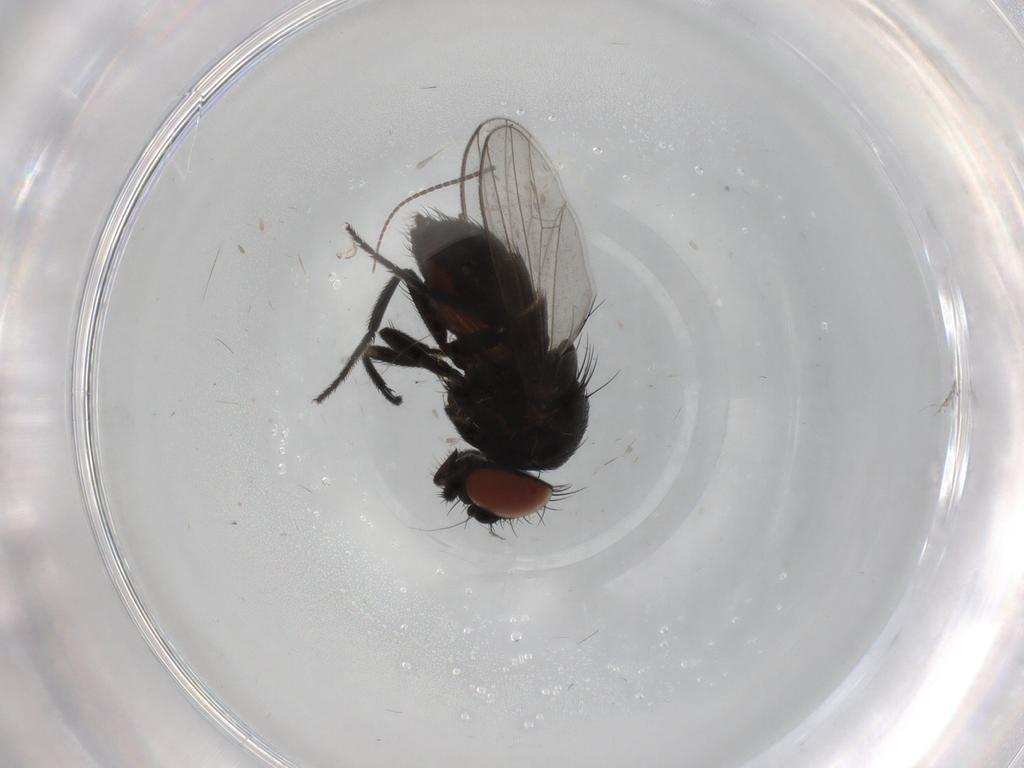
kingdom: Animalia
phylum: Arthropoda
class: Insecta
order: Diptera
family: Milichiidae
